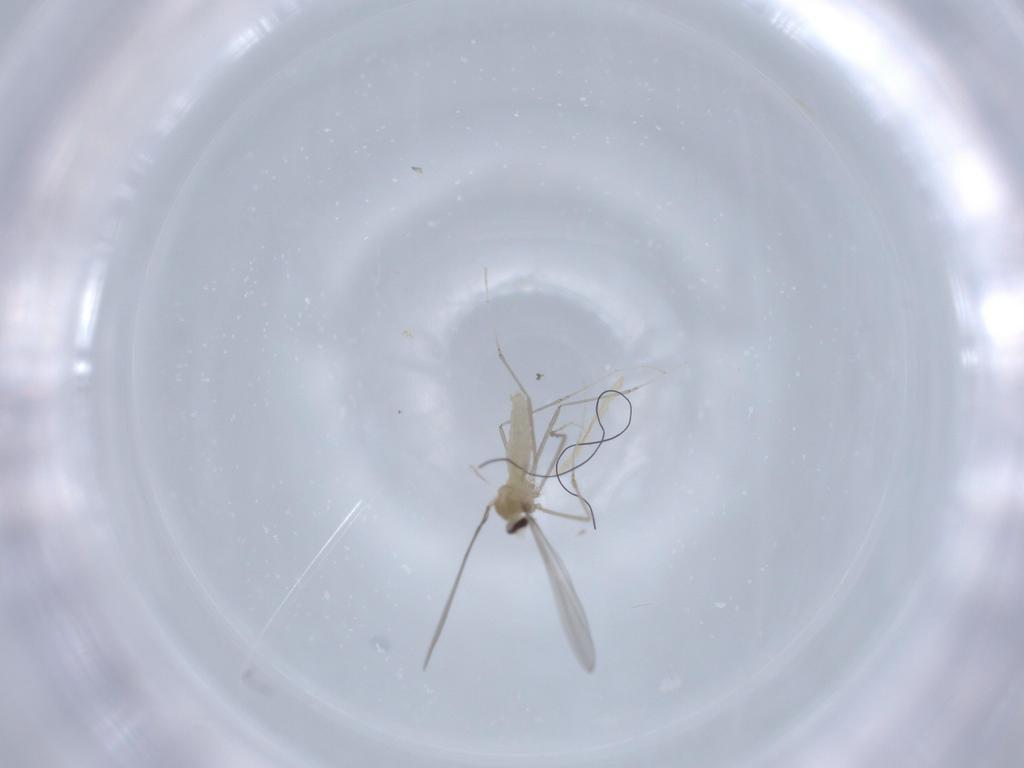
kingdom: Animalia
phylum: Arthropoda
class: Insecta
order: Diptera
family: Cecidomyiidae
